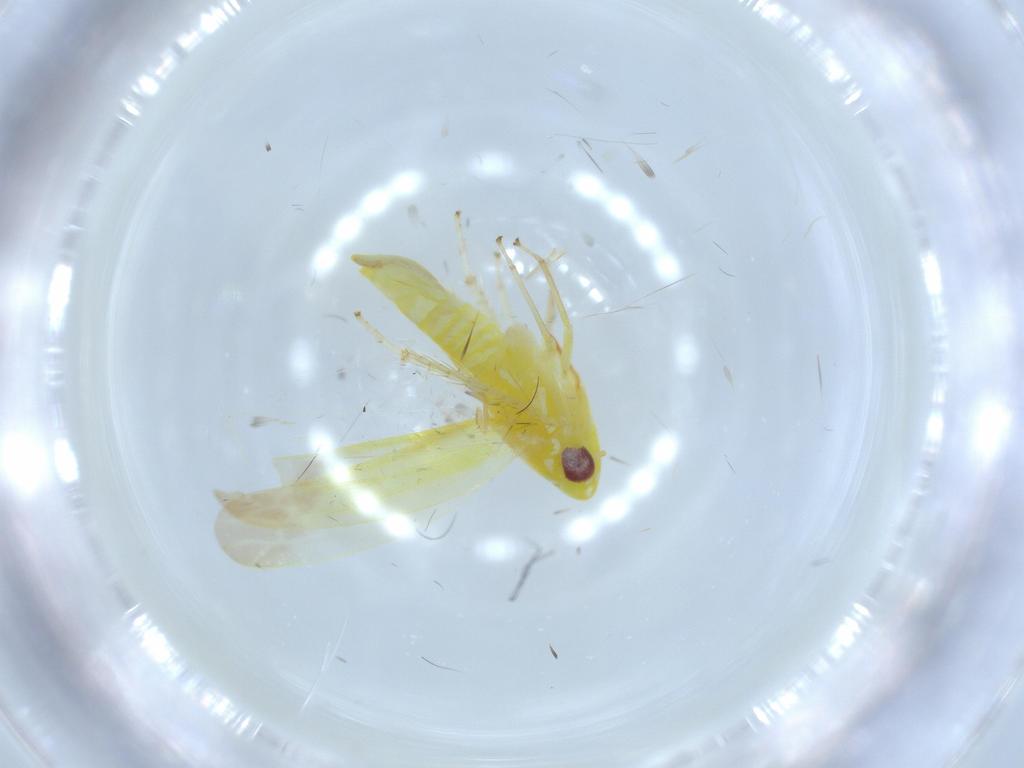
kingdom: Animalia
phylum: Arthropoda
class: Insecta
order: Hemiptera
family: Cicadellidae
